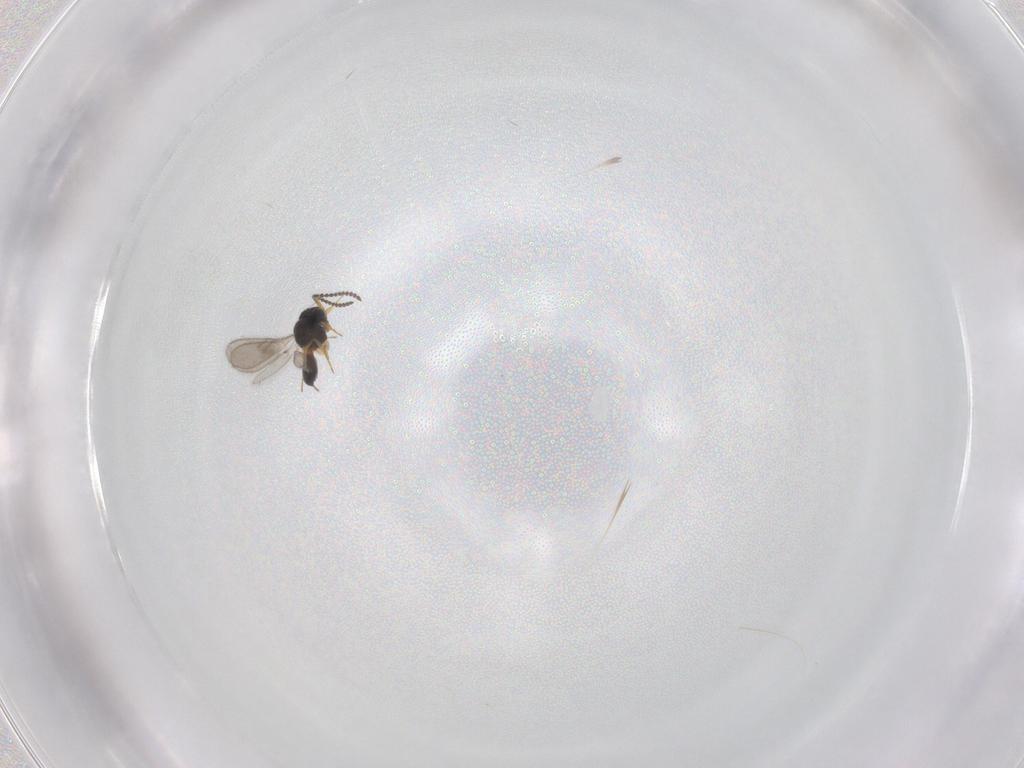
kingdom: Animalia
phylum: Arthropoda
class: Insecta
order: Hymenoptera
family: Scelionidae
